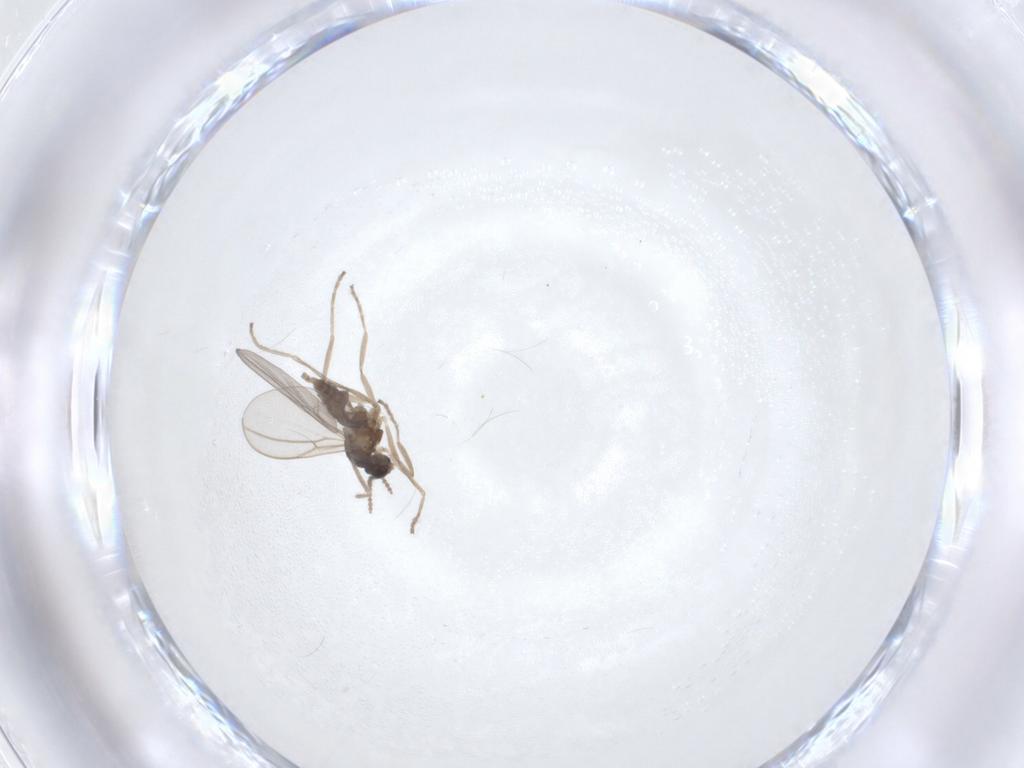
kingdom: Animalia
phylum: Arthropoda
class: Insecta
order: Diptera
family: Cecidomyiidae
